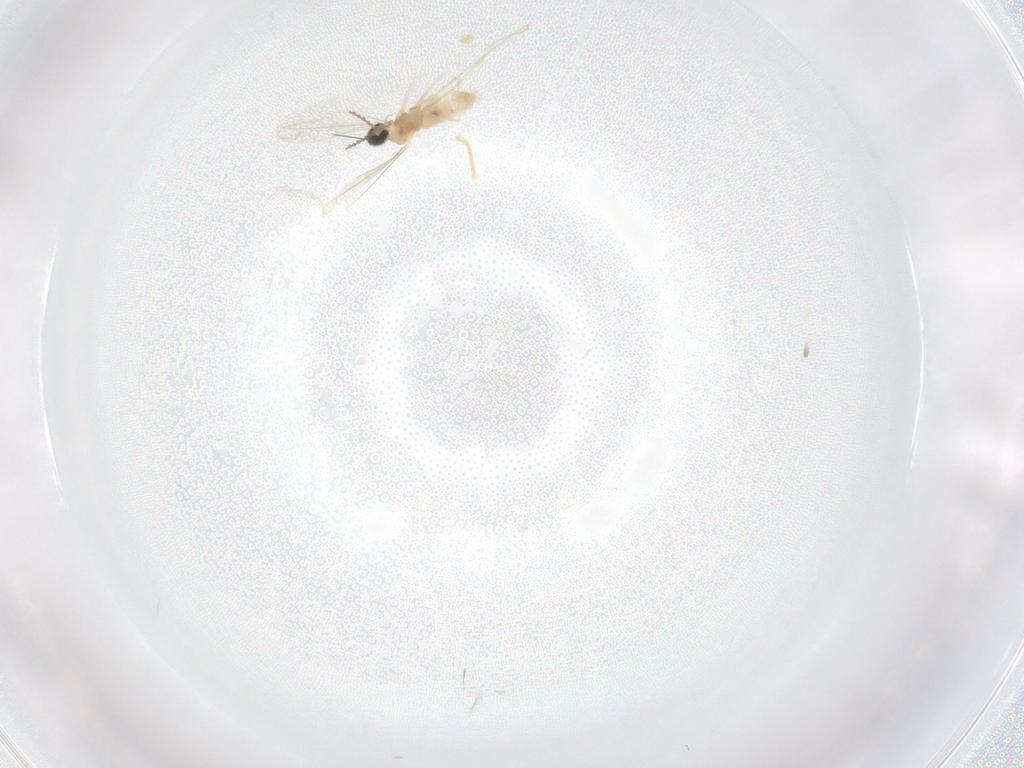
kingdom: Animalia
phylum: Arthropoda
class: Insecta
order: Diptera
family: Cecidomyiidae
